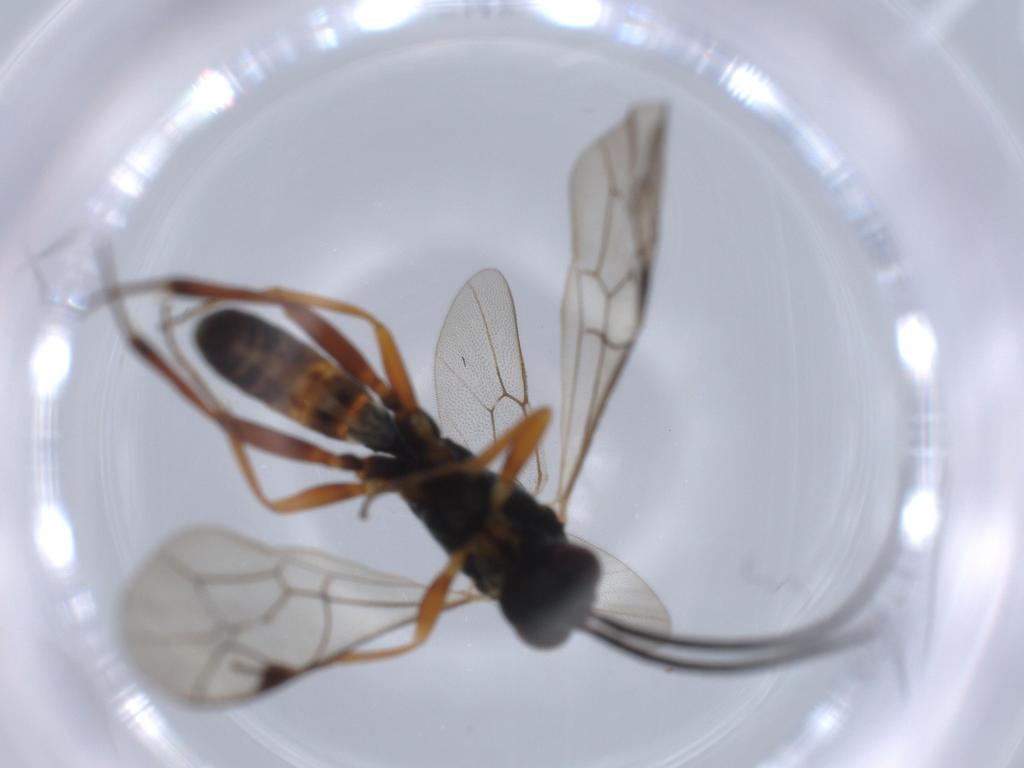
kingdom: Animalia
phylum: Arthropoda
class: Insecta
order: Hymenoptera
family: Ichneumonidae
